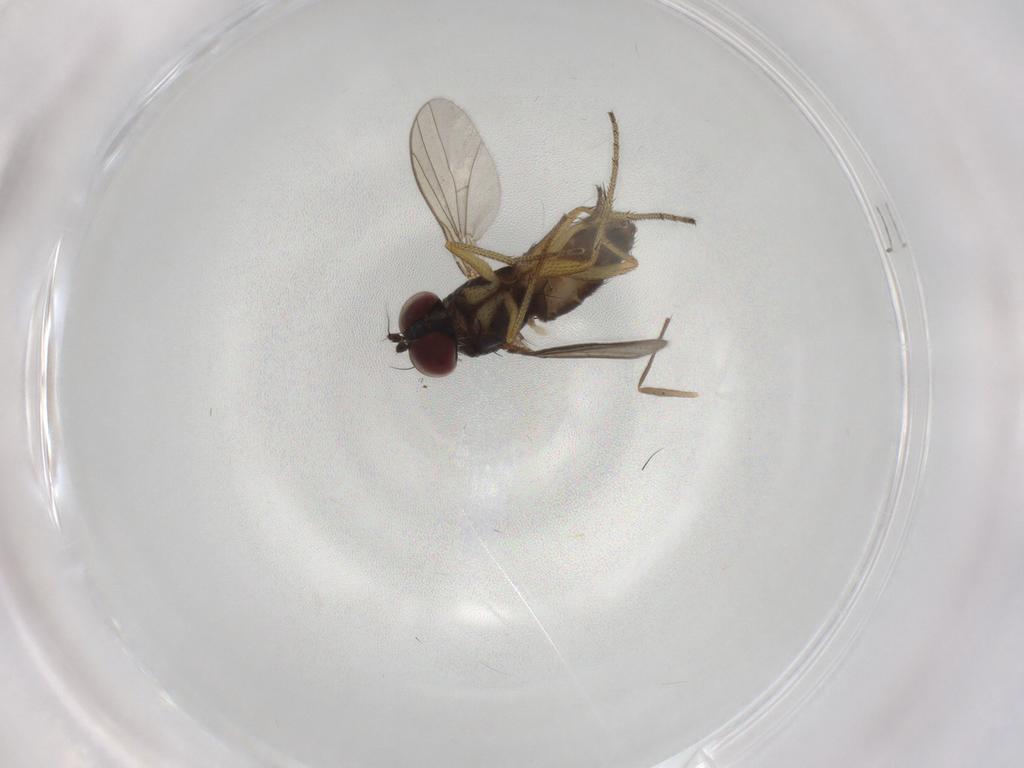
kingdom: Animalia
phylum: Arthropoda
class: Insecta
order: Diptera
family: Dolichopodidae
